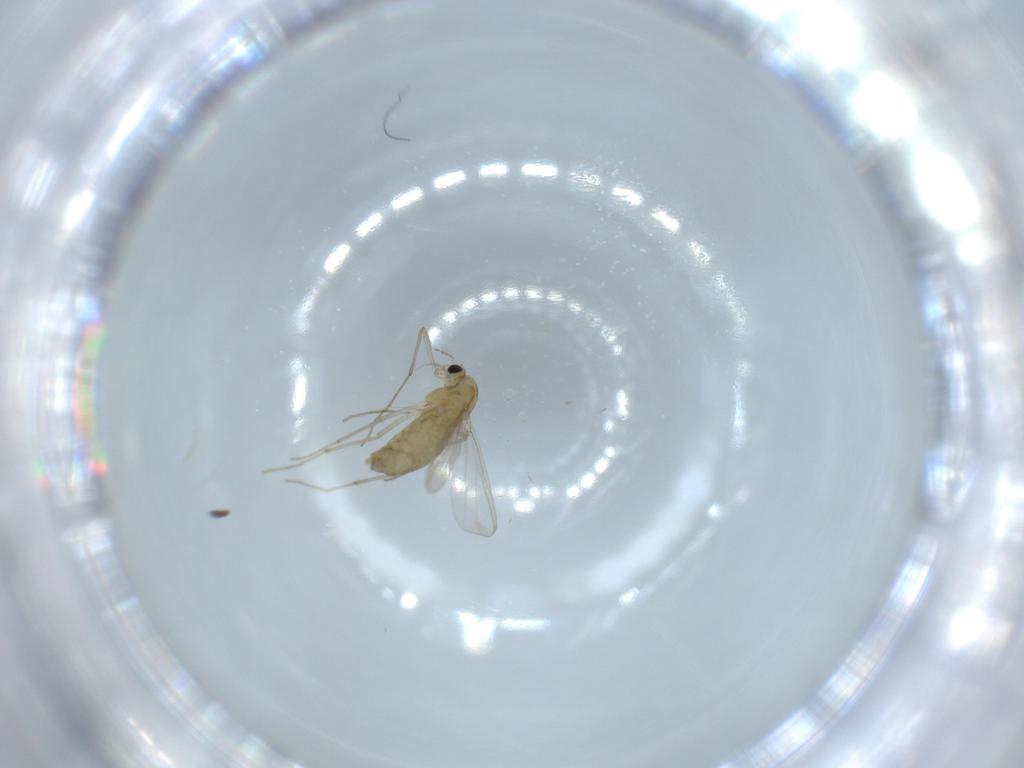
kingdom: Animalia
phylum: Arthropoda
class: Insecta
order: Diptera
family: Chironomidae
